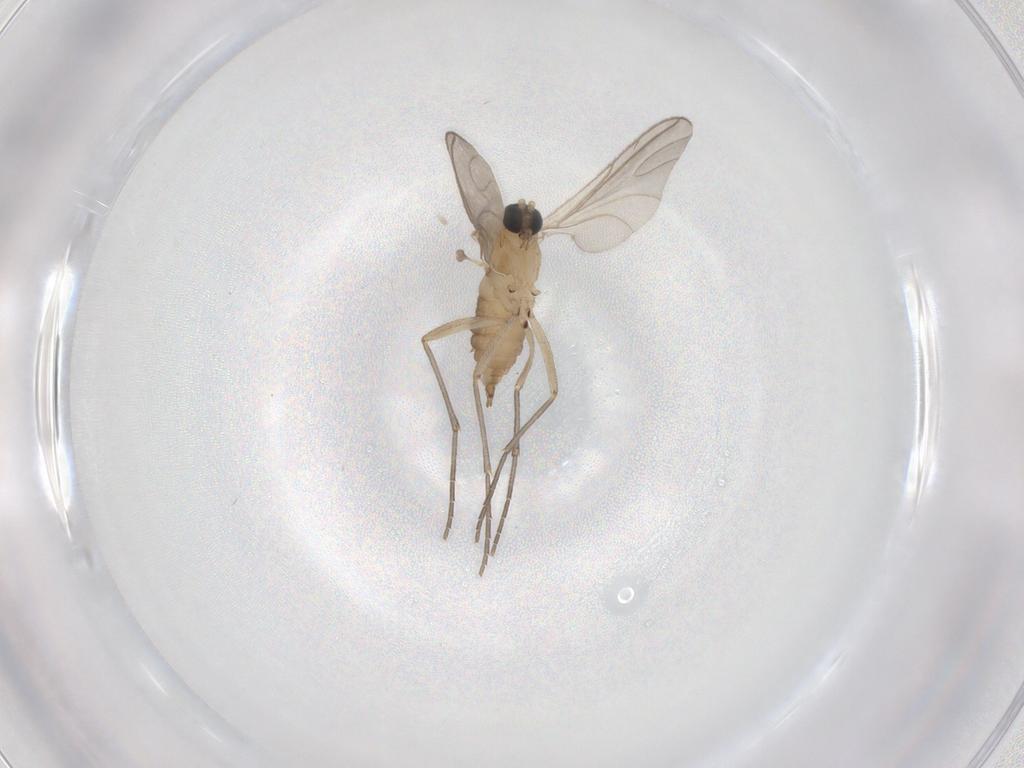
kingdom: Animalia
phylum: Arthropoda
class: Insecta
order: Diptera
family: Sciaridae
